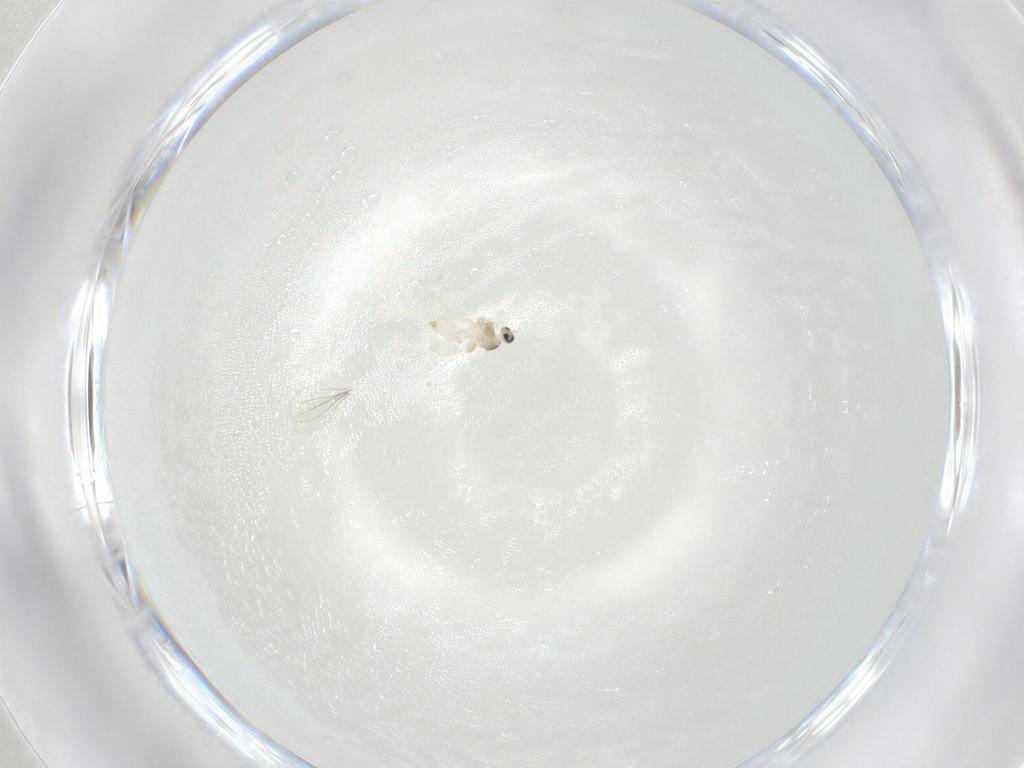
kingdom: Animalia
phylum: Arthropoda
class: Insecta
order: Diptera
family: Cecidomyiidae
